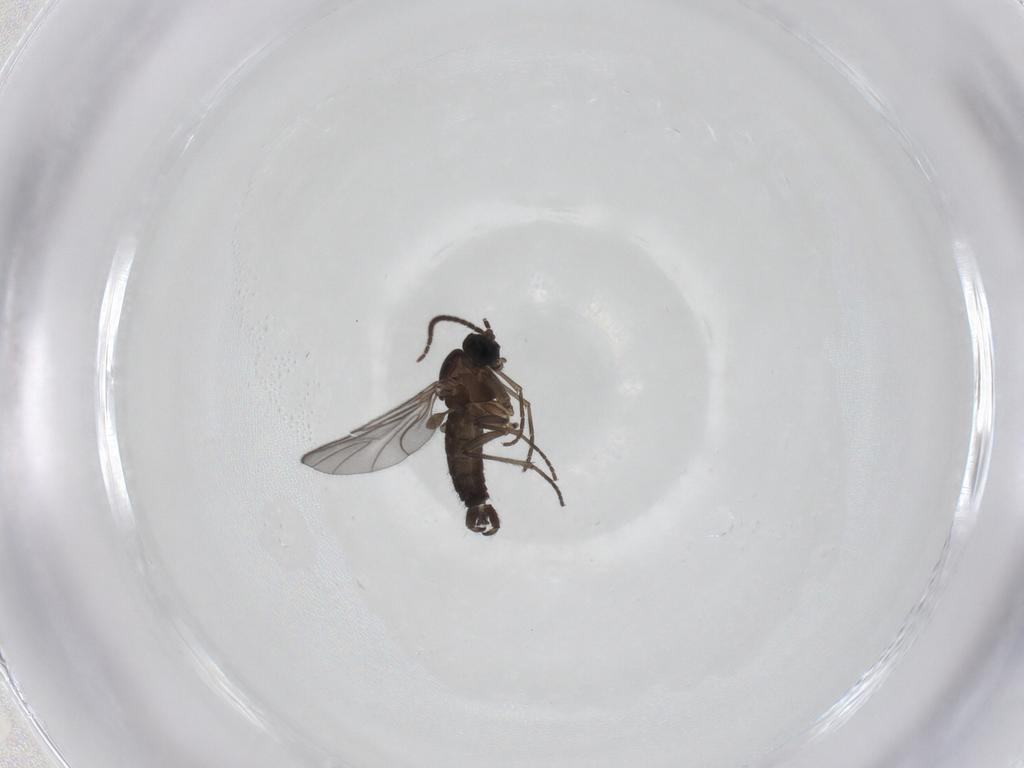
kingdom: Animalia
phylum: Arthropoda
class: Insecta
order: Diptera
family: Sciaridae
